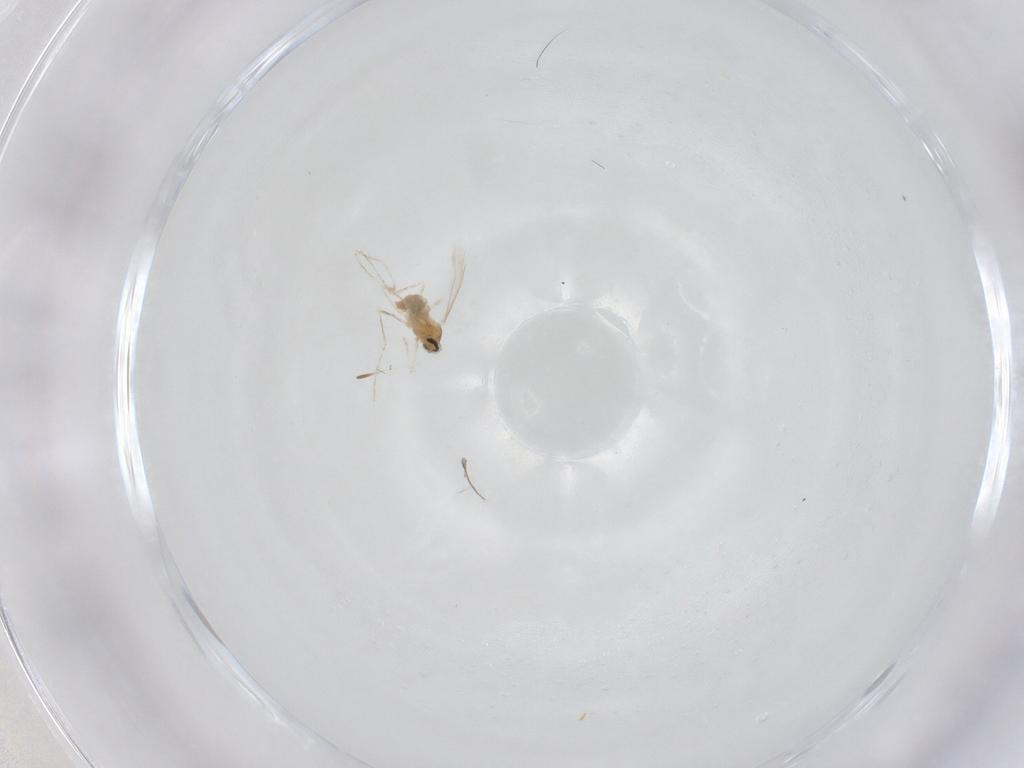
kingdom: Animalia
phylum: Arthropoda
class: Insecta
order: Diptera
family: Cecidomyiidae
